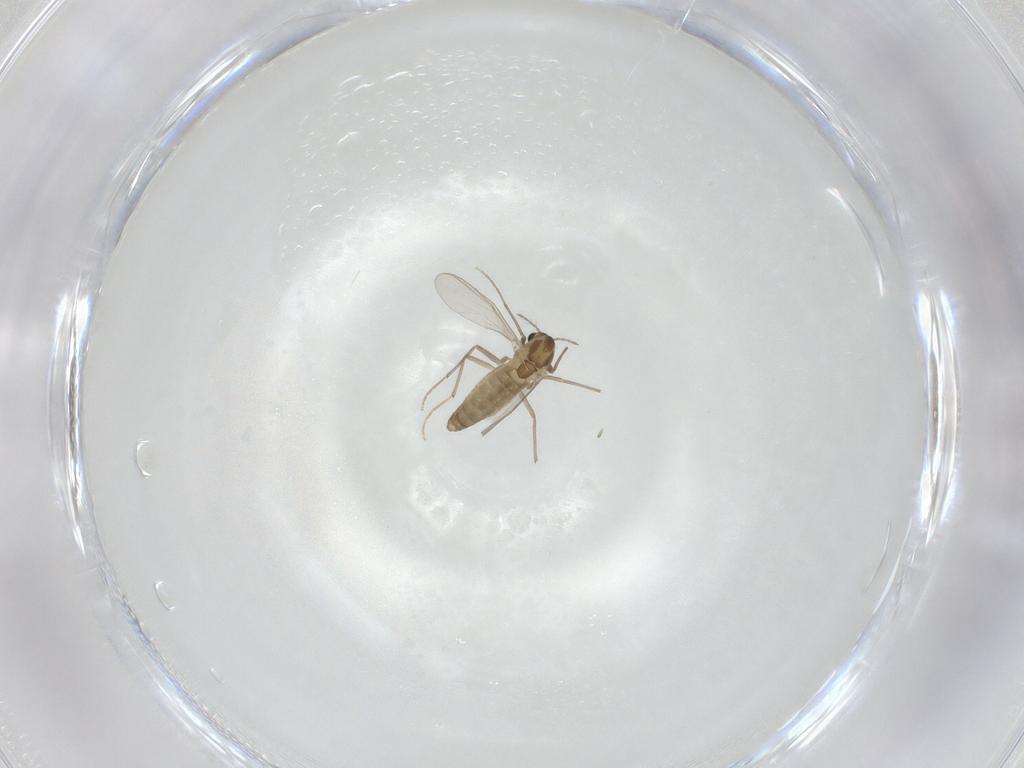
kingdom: Animalia
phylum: Arthropoda
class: Insecta
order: Diptera
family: Chironomidae
